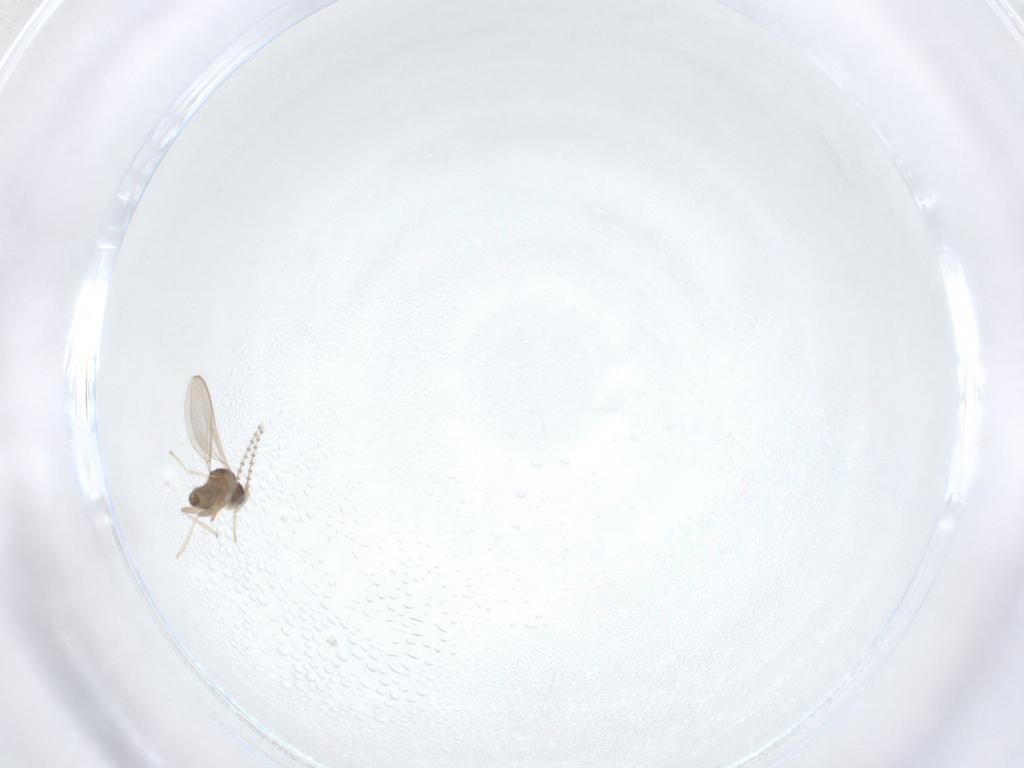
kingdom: Animalia
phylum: Arthropoda
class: Insecta
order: Diptera
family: Cecidomyiidae
